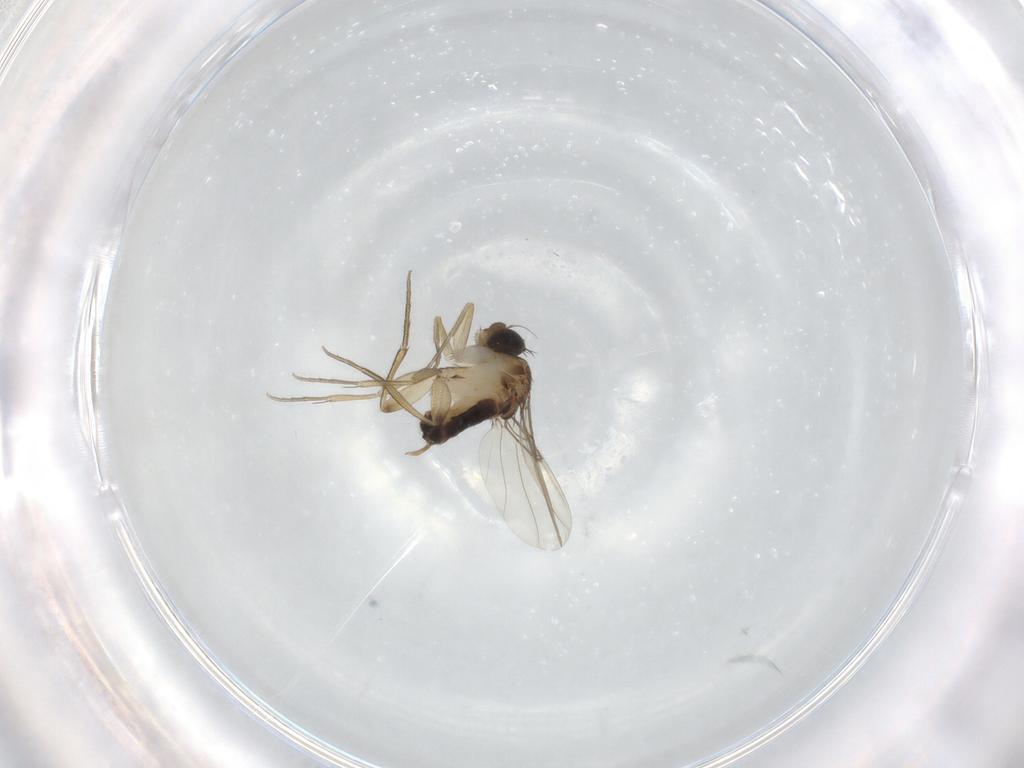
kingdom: Animalia
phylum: Arthropoda
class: Insecta
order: Diptera
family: Phoridae
